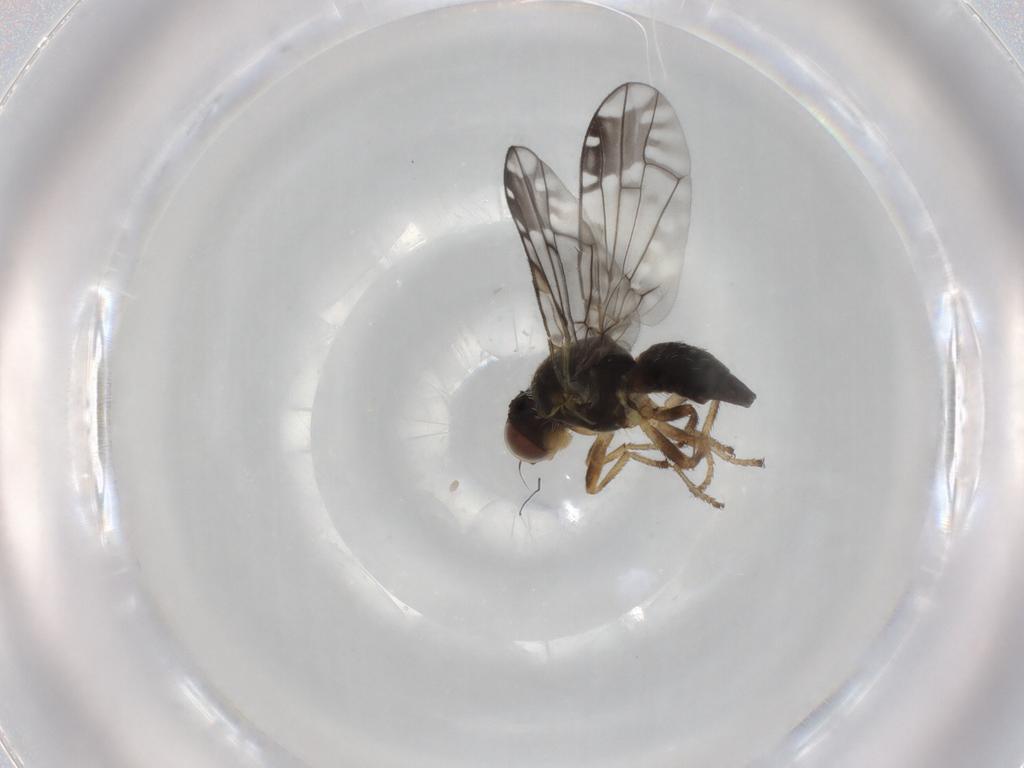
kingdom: Animalia
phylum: Arthropoda
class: Insecta
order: Diptera
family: Tephritidae
